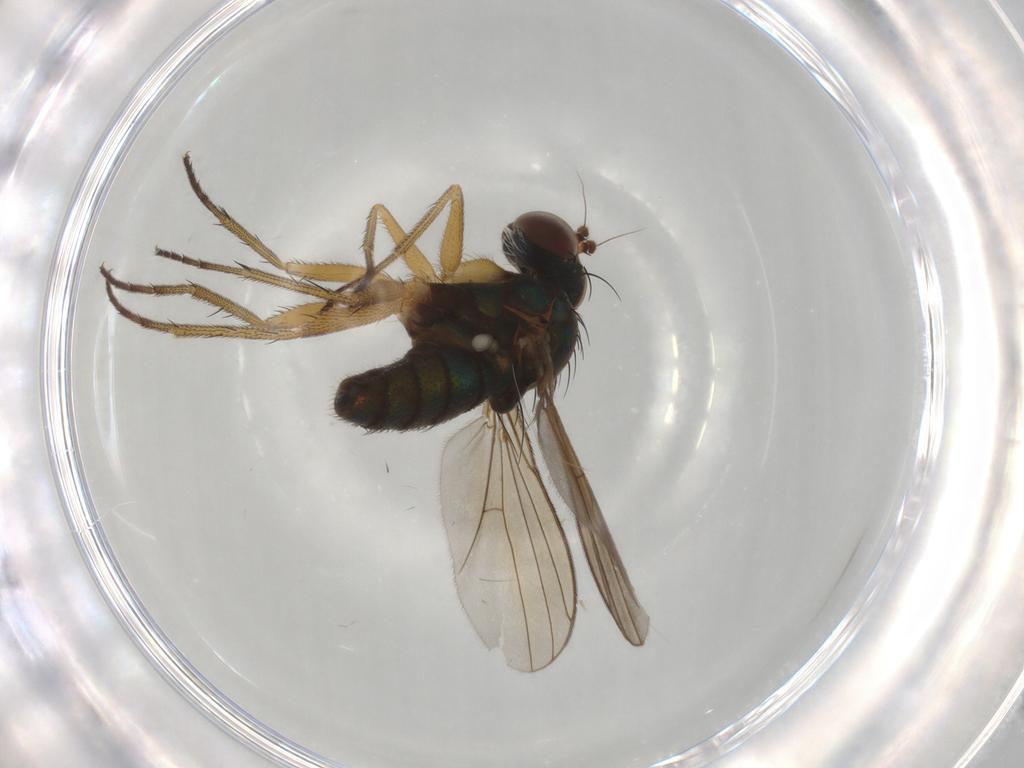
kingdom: Animalia
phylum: Arthropoda
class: Insecta
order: Diptera
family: Dolichopodidae
